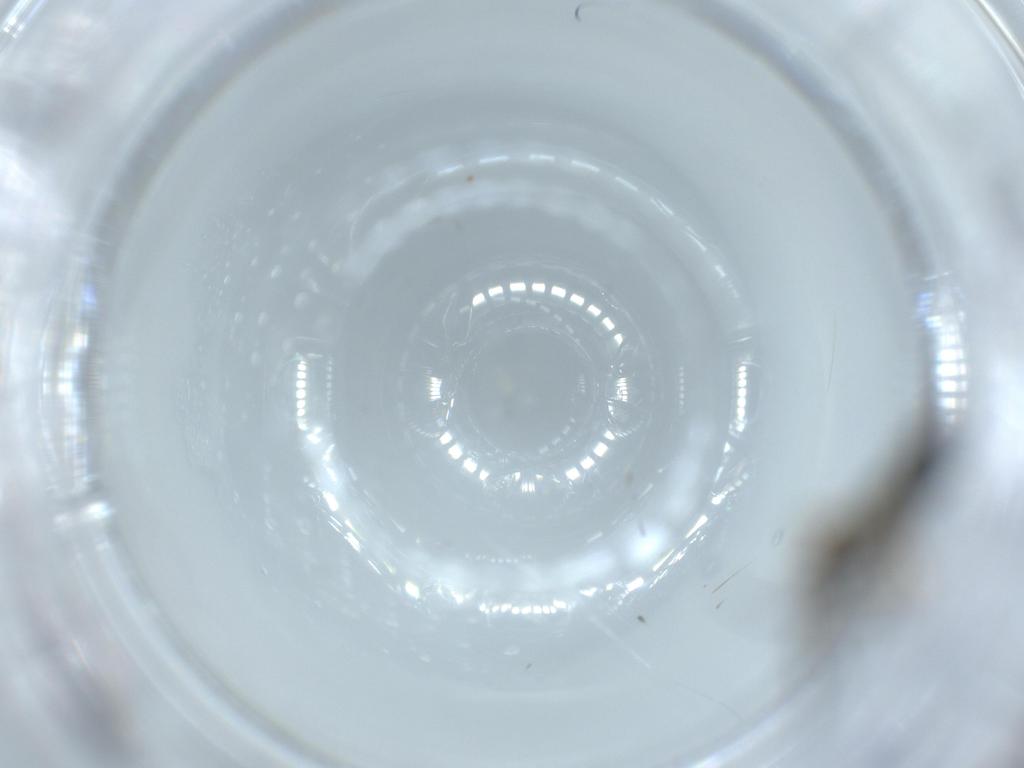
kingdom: Animalia
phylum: Arthropoda
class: Insecta
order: Diptera
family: Sciaridae
